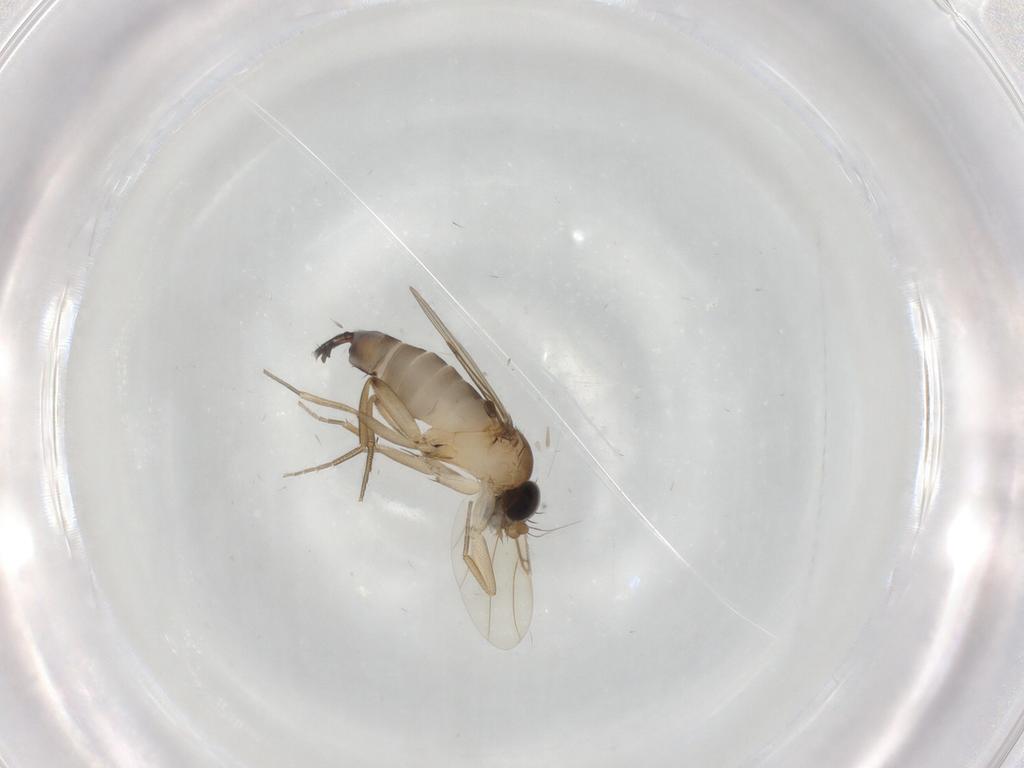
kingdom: Animalia
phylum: Arthropoda
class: Insecta
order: Diptera
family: Phoridae
